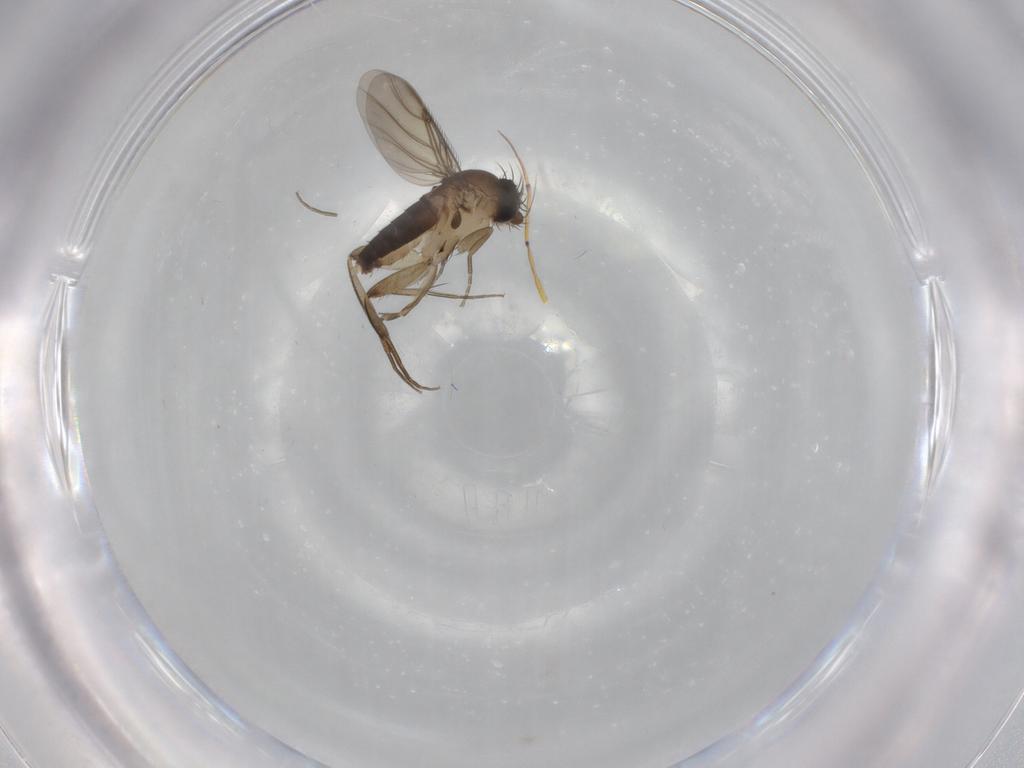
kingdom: Animalia
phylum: Arthropoda
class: Insecta
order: Diptera
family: Phoridae
